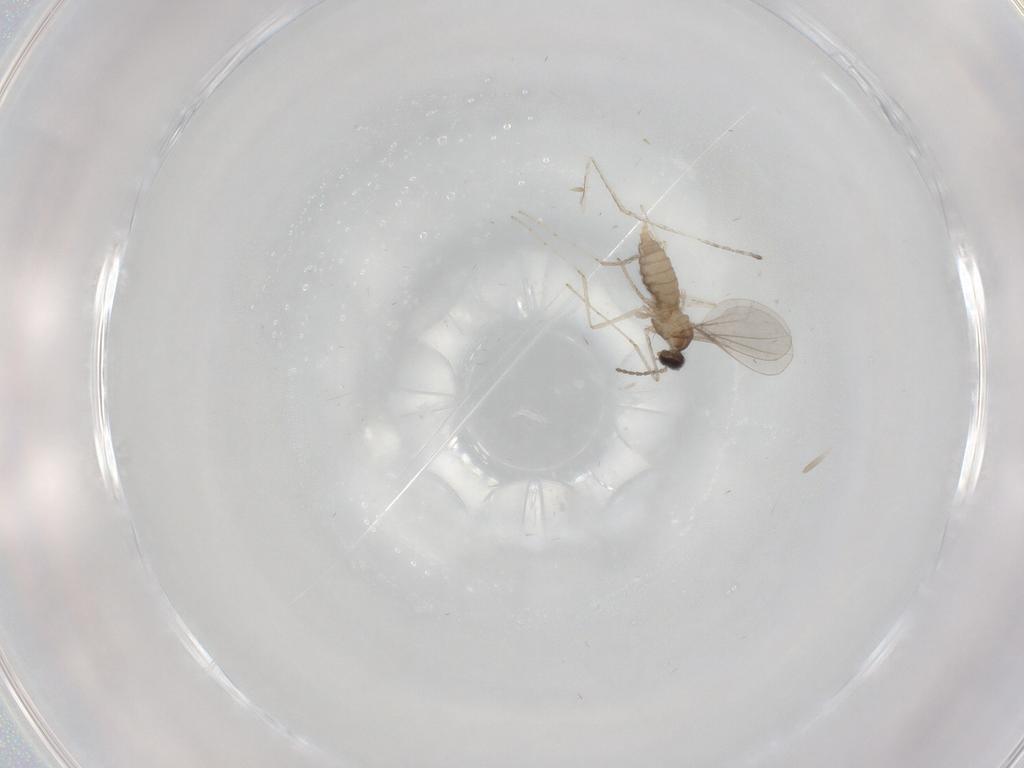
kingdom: Animalia
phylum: Arthropoda
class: Insecta
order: Diptera
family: Cecidomyiidae
